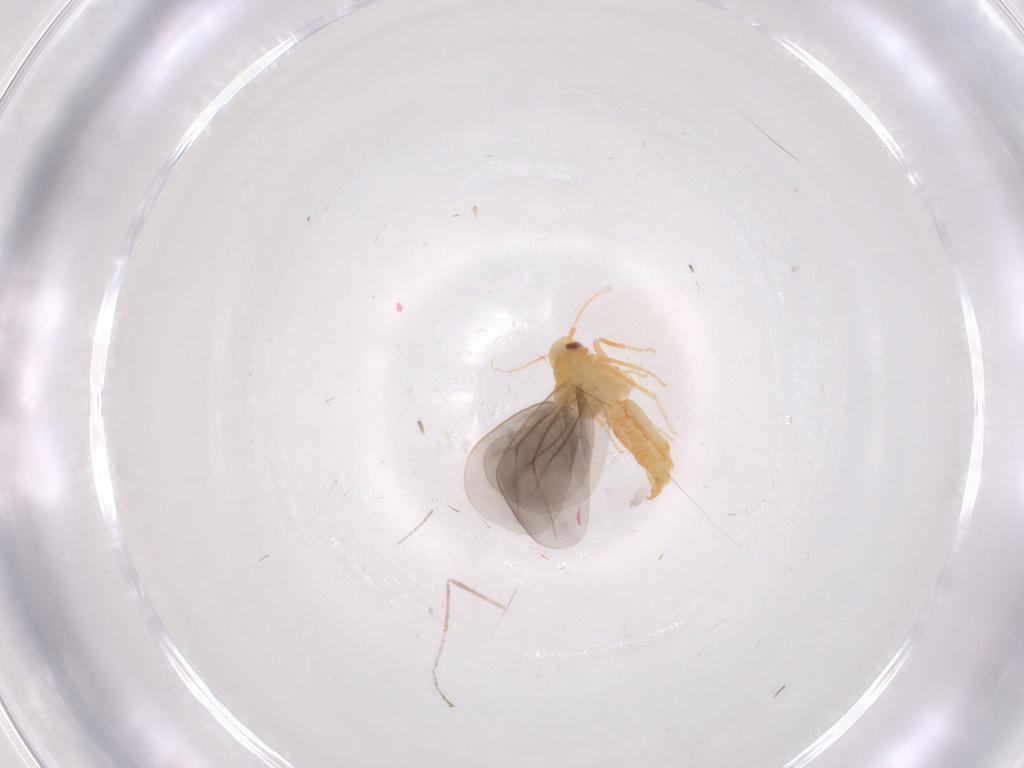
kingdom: Animalia
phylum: Arthropoda
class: Insecta
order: Hemiptera
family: Aleyrodidae
